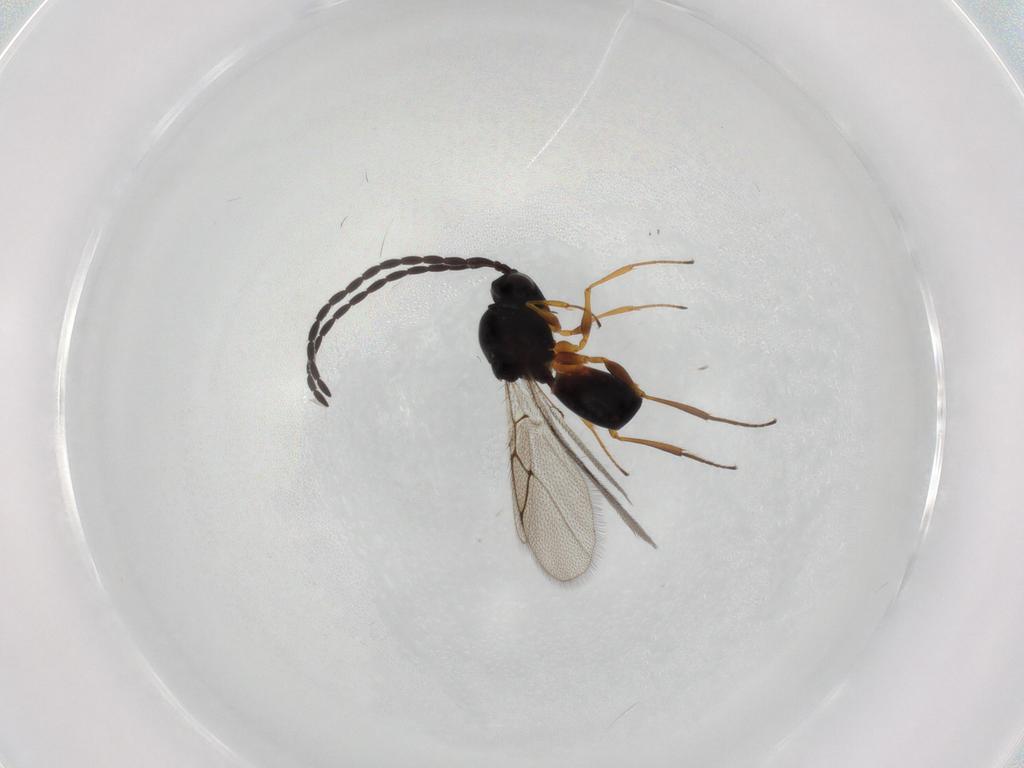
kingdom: Animalia
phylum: Arthropoda
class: Insecta
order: Hymenoptera
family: Figitidae
